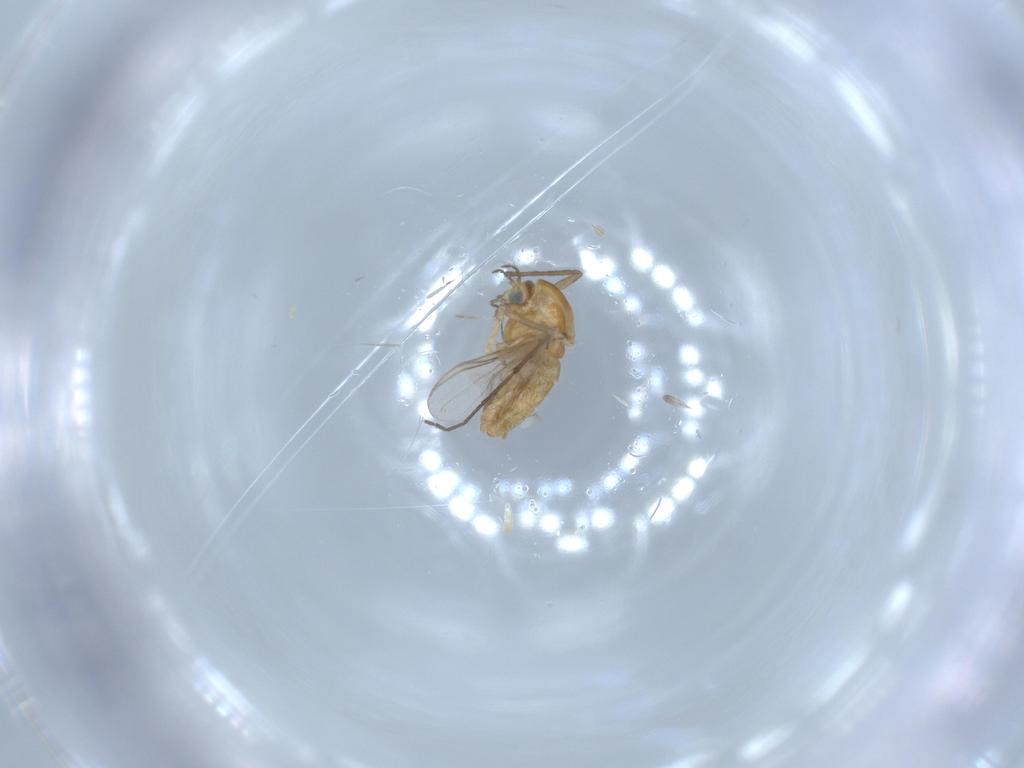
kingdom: Animalia
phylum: Arthropoda
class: Insecta
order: Diptera
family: Chironomidae
